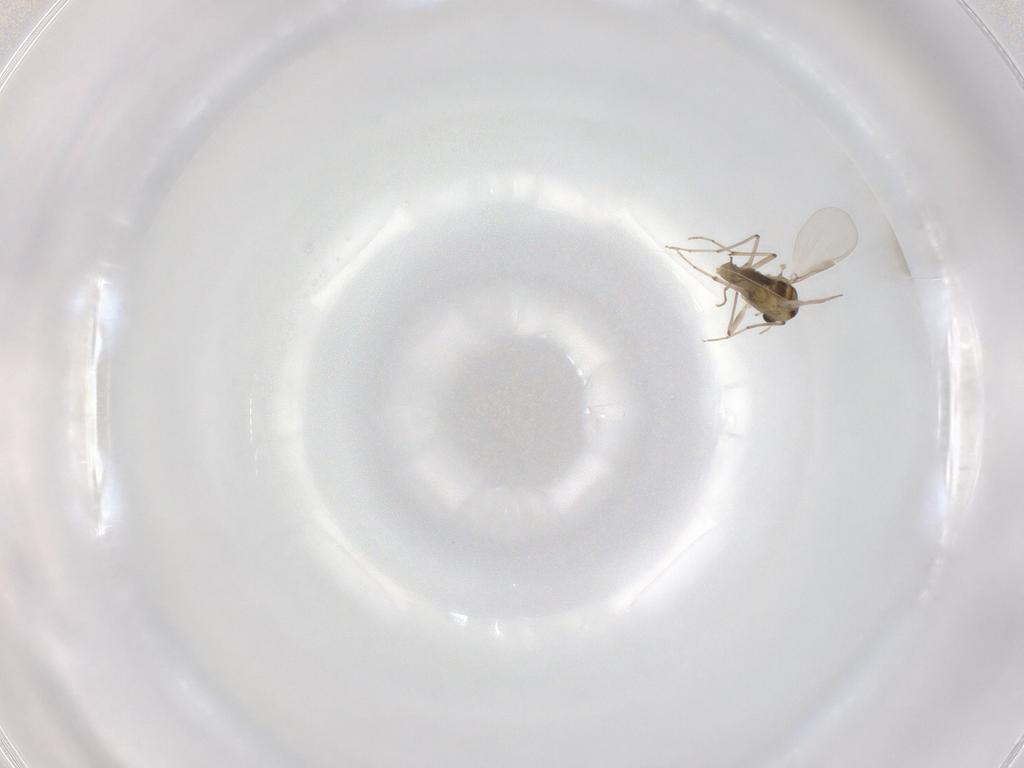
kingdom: Animalia
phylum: Arthropoda
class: Insecta
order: Diptera
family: Chironomidae
